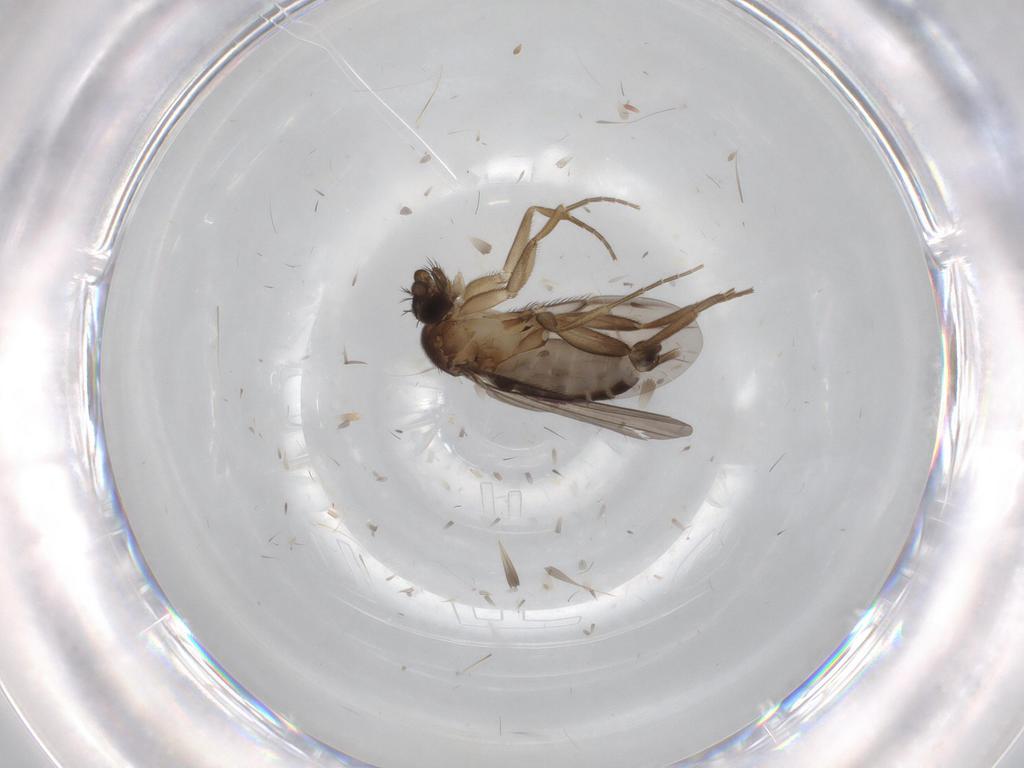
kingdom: Animalia
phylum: Arthropoda
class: Insecta
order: Diptera
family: Phoridae
